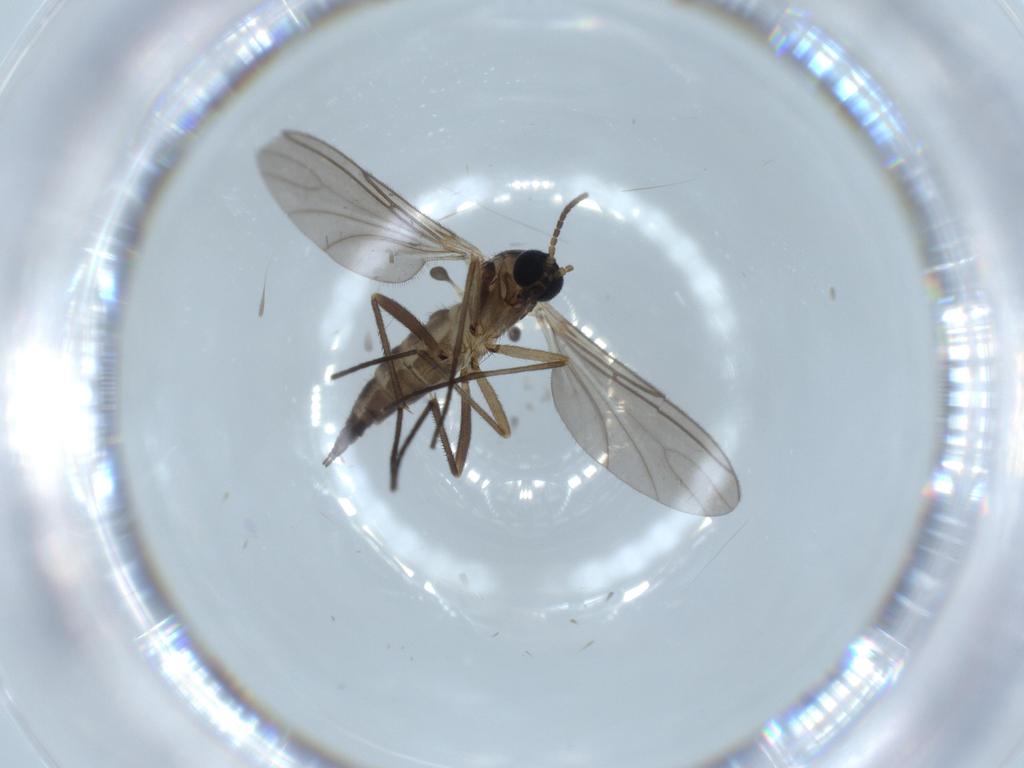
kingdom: Animalia
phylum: Arthropoda
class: Insecta
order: Diptera
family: Sciaridae
